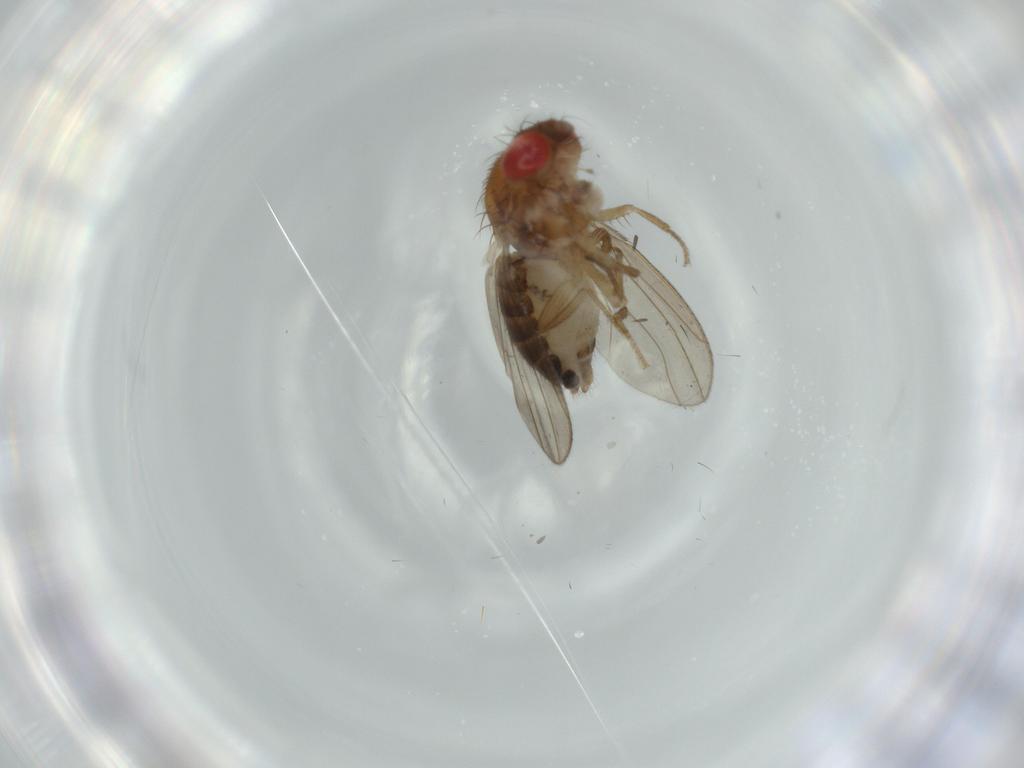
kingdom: Animalia
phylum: Arthropoda
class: Insecta
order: Diptera
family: Drosophilidae
